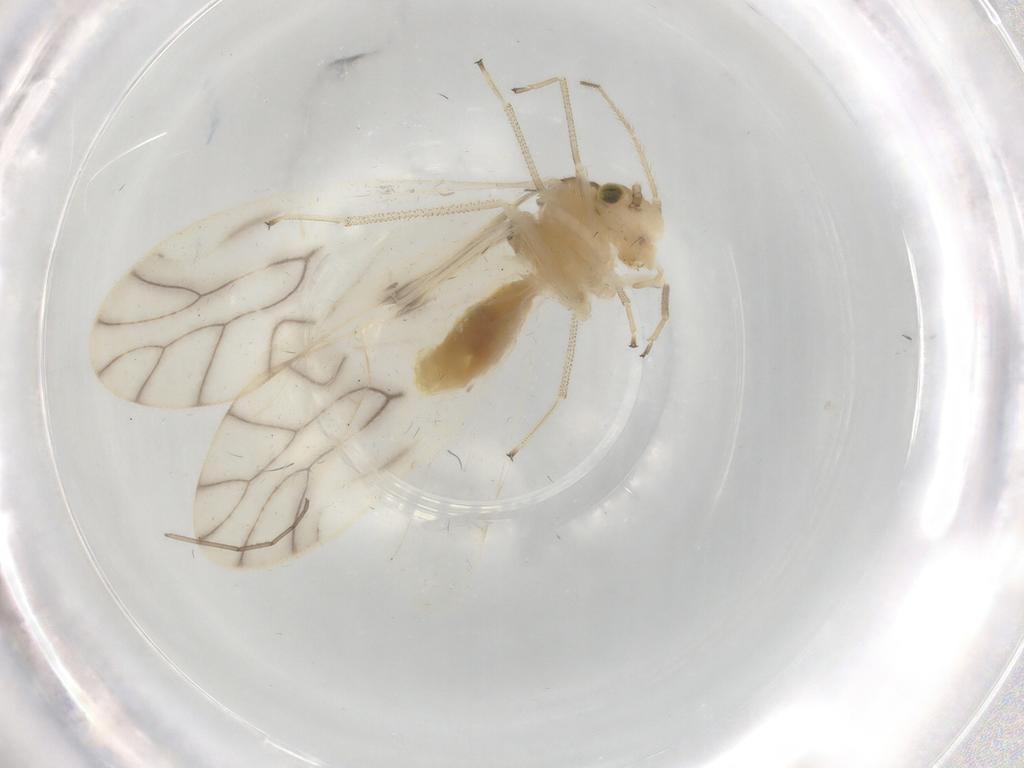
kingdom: Animalia
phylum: Arthropoda
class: Insecta
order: Psocodea
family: Caeciliusidae
